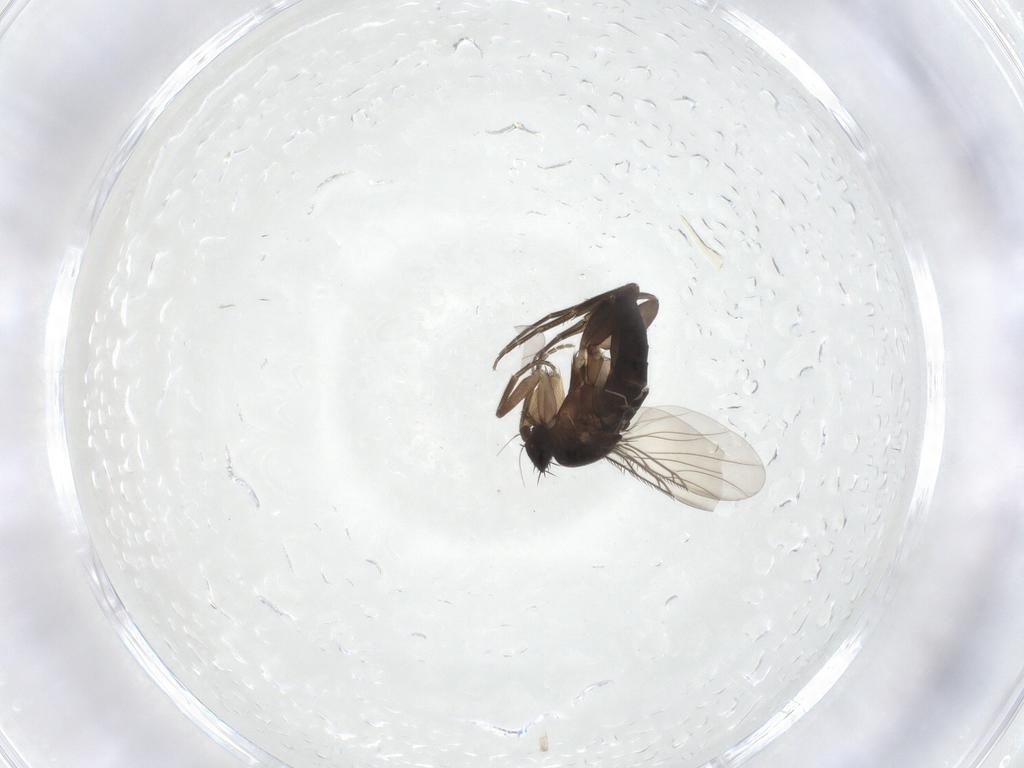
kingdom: Animalia
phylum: Arthropoda
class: Insecta
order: Diptera
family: Phoridae
